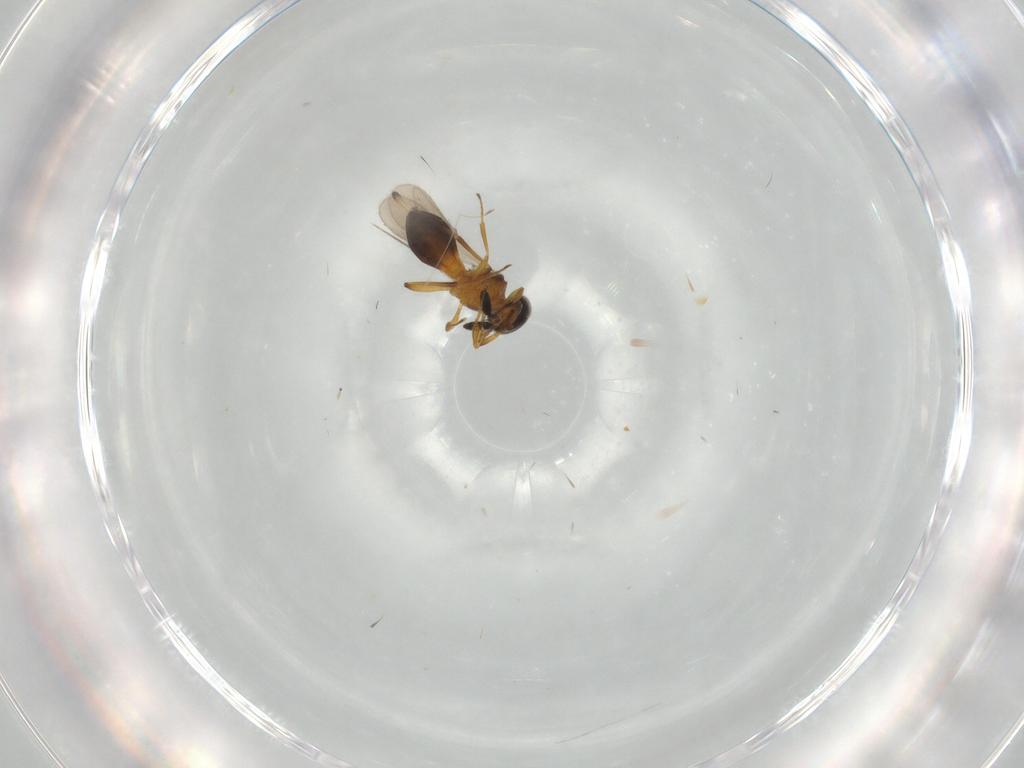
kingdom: Animalia
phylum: Arthropoda
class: Insecta
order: Hymenoptera
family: Scelionidae
